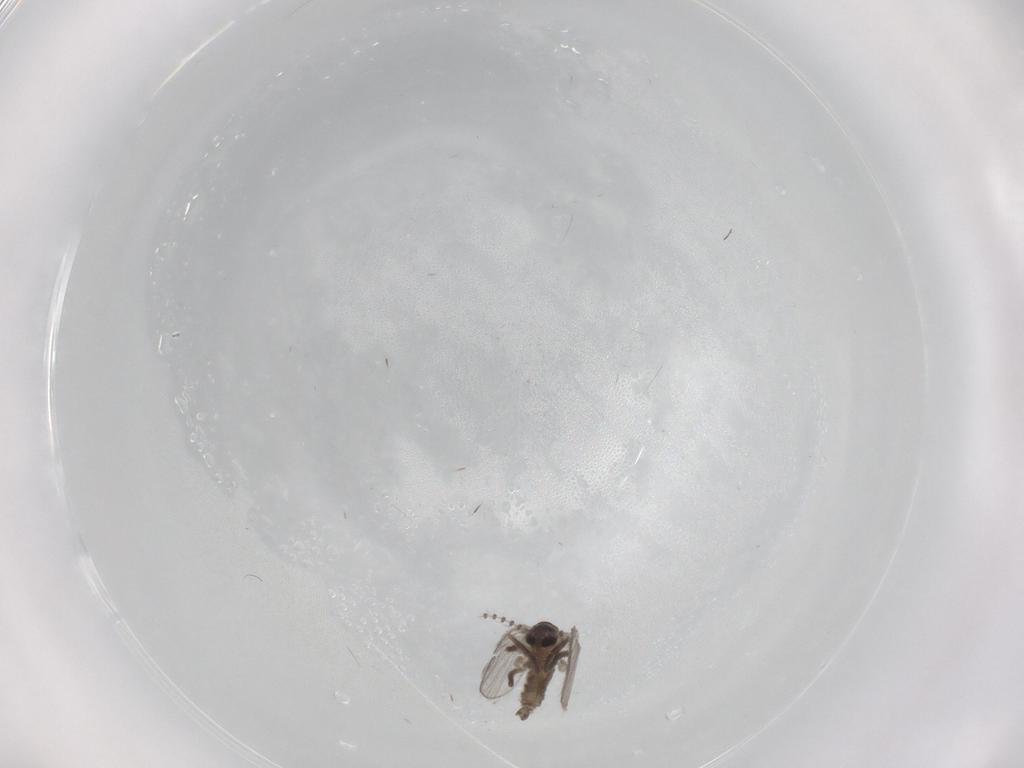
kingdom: Animalia
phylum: Arthropoda
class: Insecta
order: Diptera
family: Psychodidae
